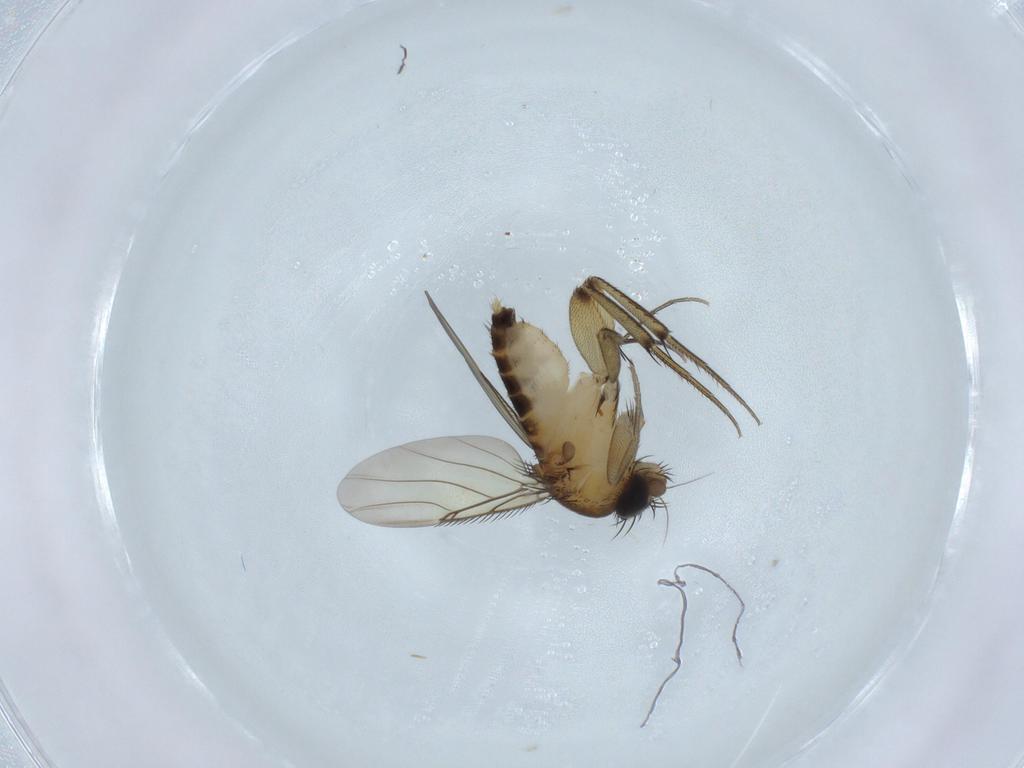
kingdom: Animalia
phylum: Arthropoda
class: Insecta
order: Diptera
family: Phoridae
